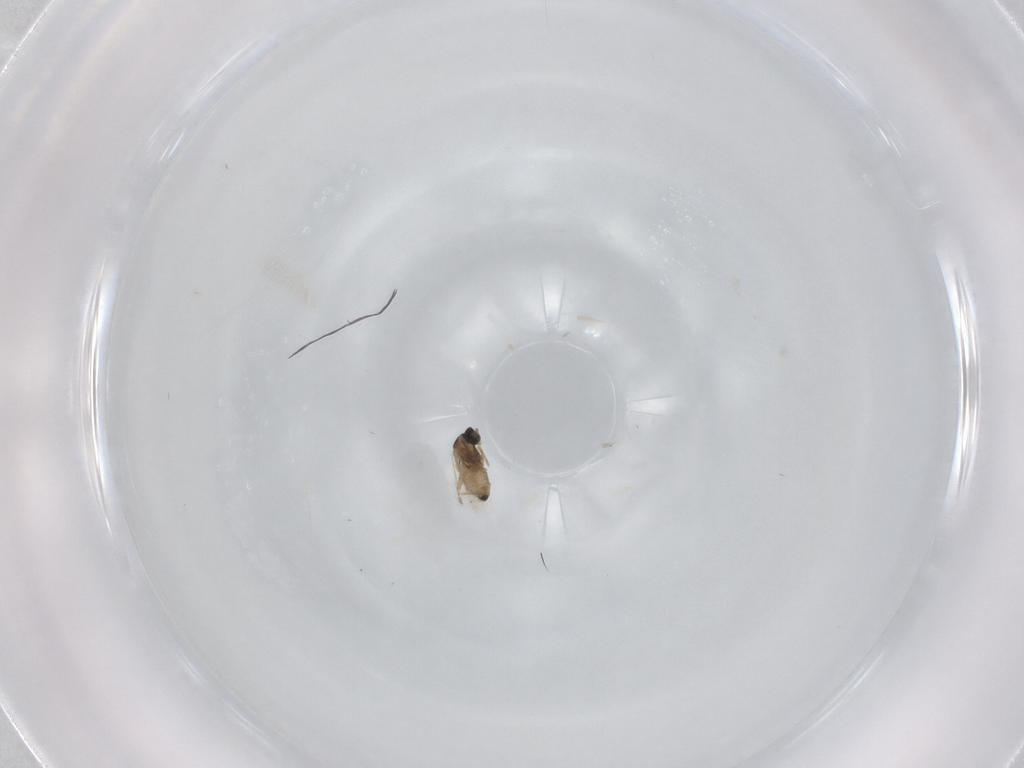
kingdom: Animalia
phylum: Arthropoda
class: Insecta
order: Diptera
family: Cecidomyiidae
